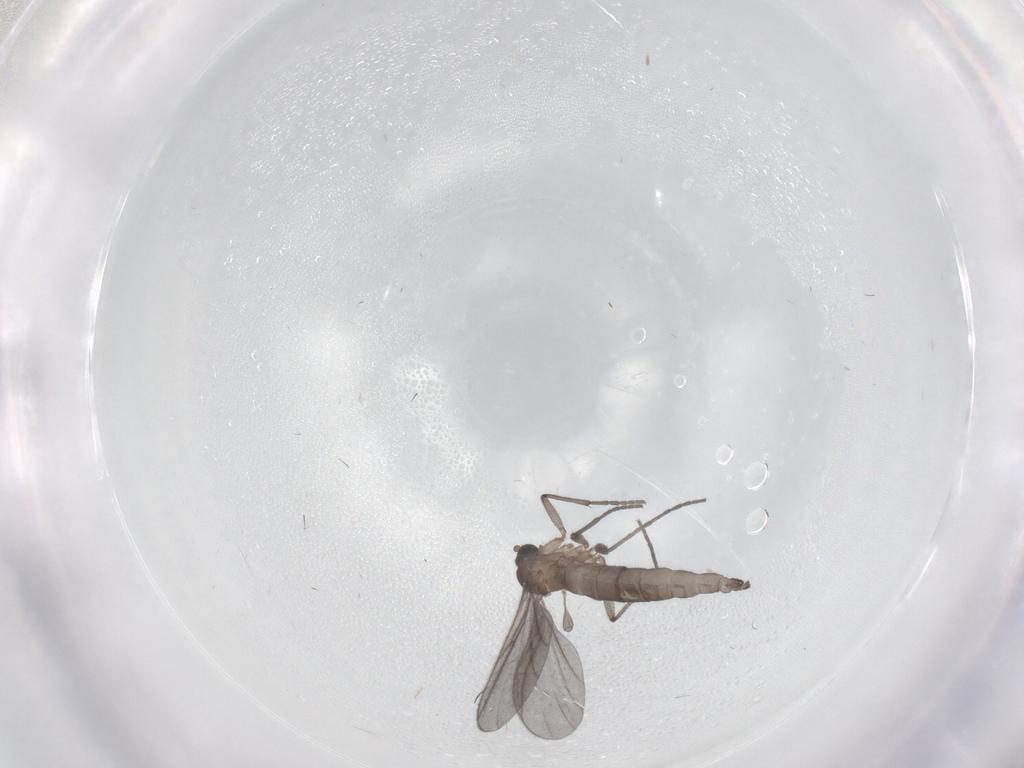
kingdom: Animalia
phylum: Arthropoda
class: Insecta
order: Diptera
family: Sciaridae
